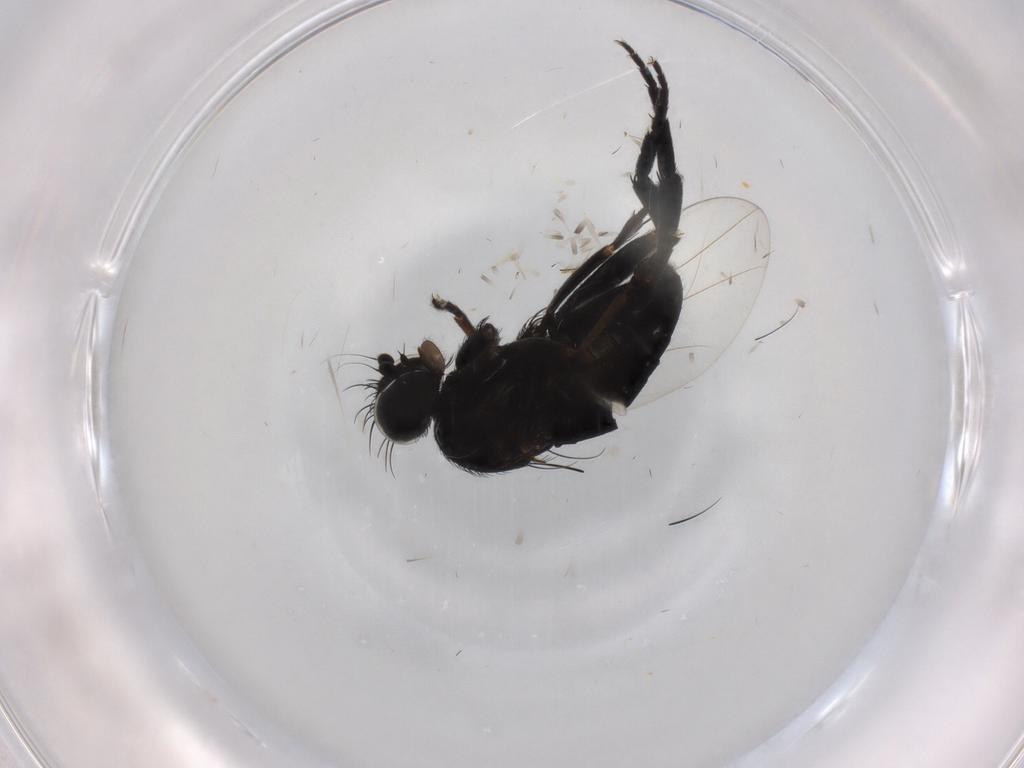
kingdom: Animalia
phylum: Arthropoda
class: Insecta
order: Diptera
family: Phoridae
